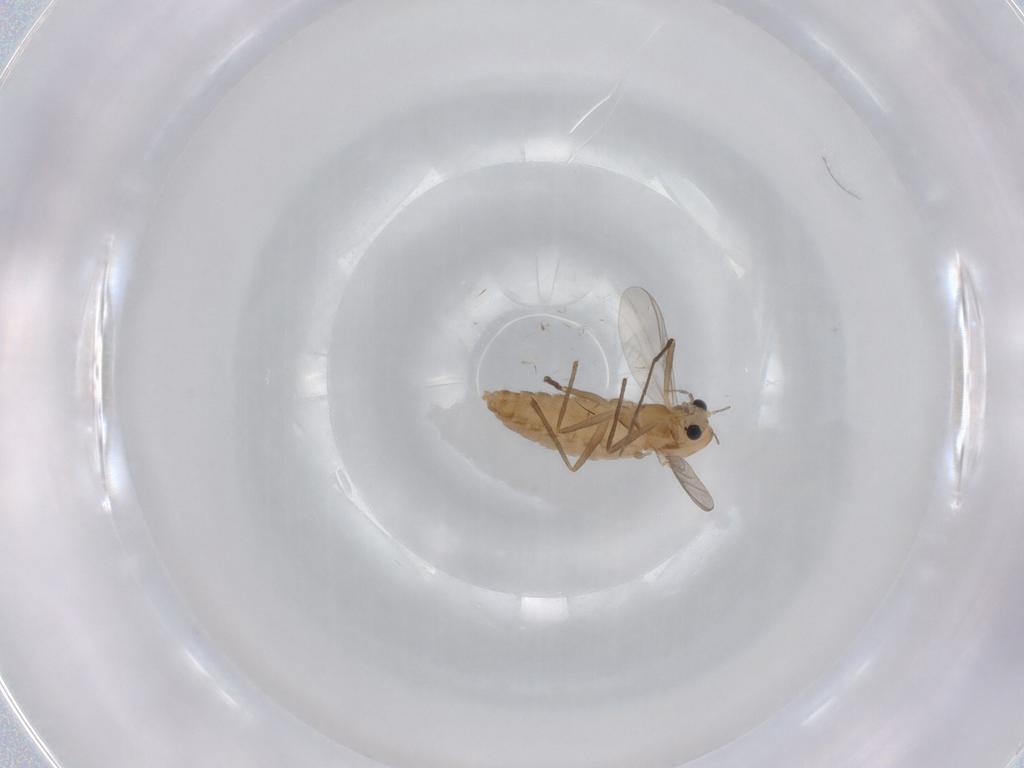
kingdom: Animalia
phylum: Arthropoda
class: Insecta
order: Diptera
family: Chironomidae
